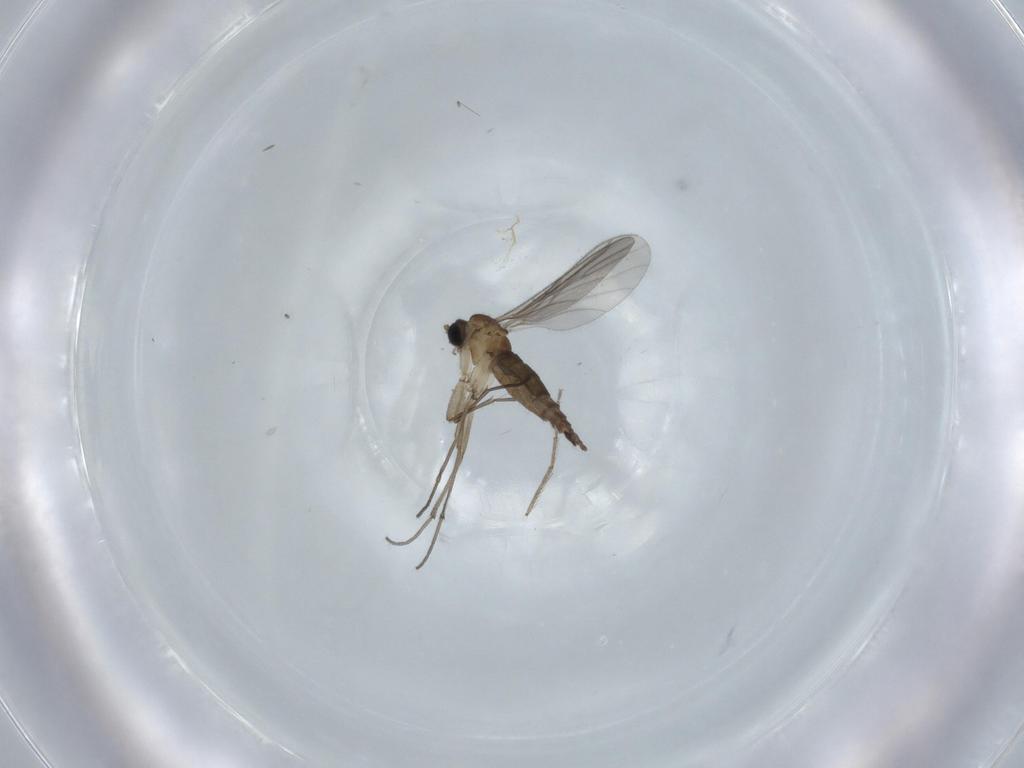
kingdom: Animalia
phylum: Arthropoda
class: Insecta
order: Diptera
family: Sciaridae
